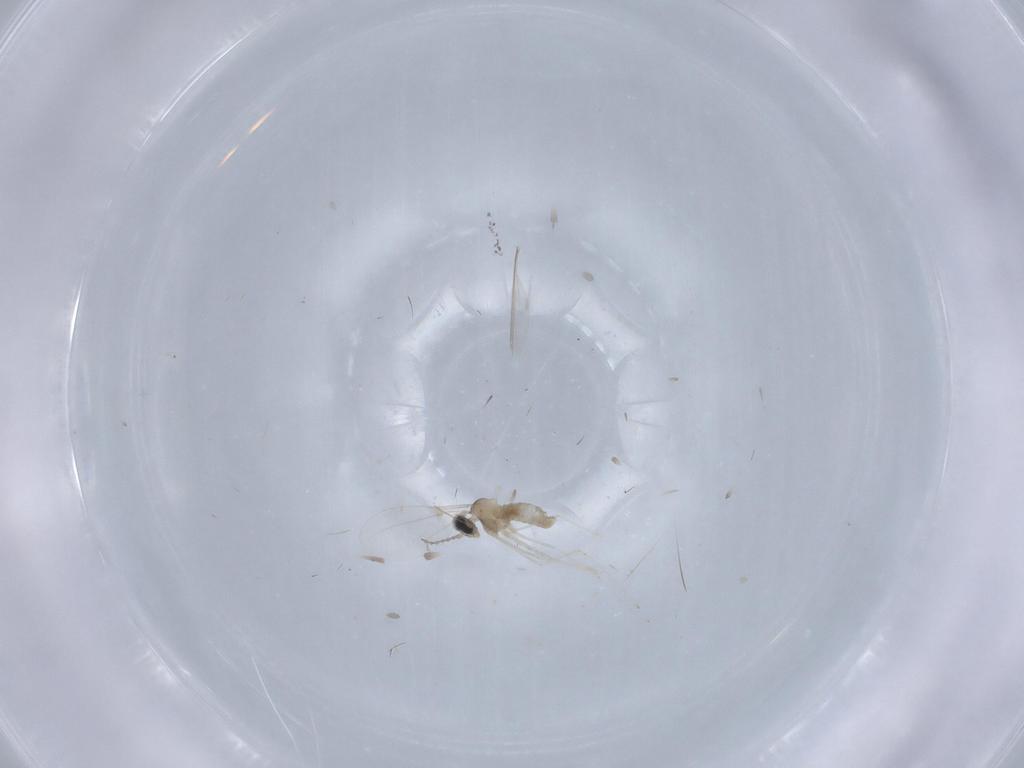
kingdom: Animalia
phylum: Arthropoda
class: Insecta
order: Diptera
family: Cecidomyiidae
